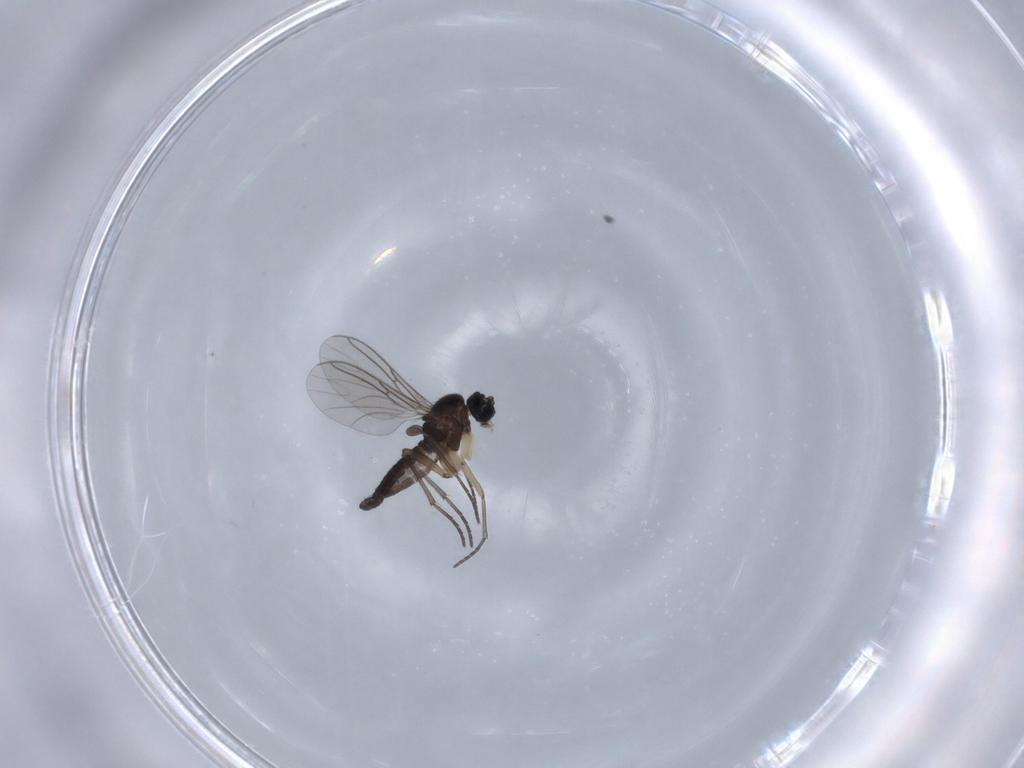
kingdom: Animalia
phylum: Arthropoda
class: Insecta
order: Diptera
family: Sciaridae
